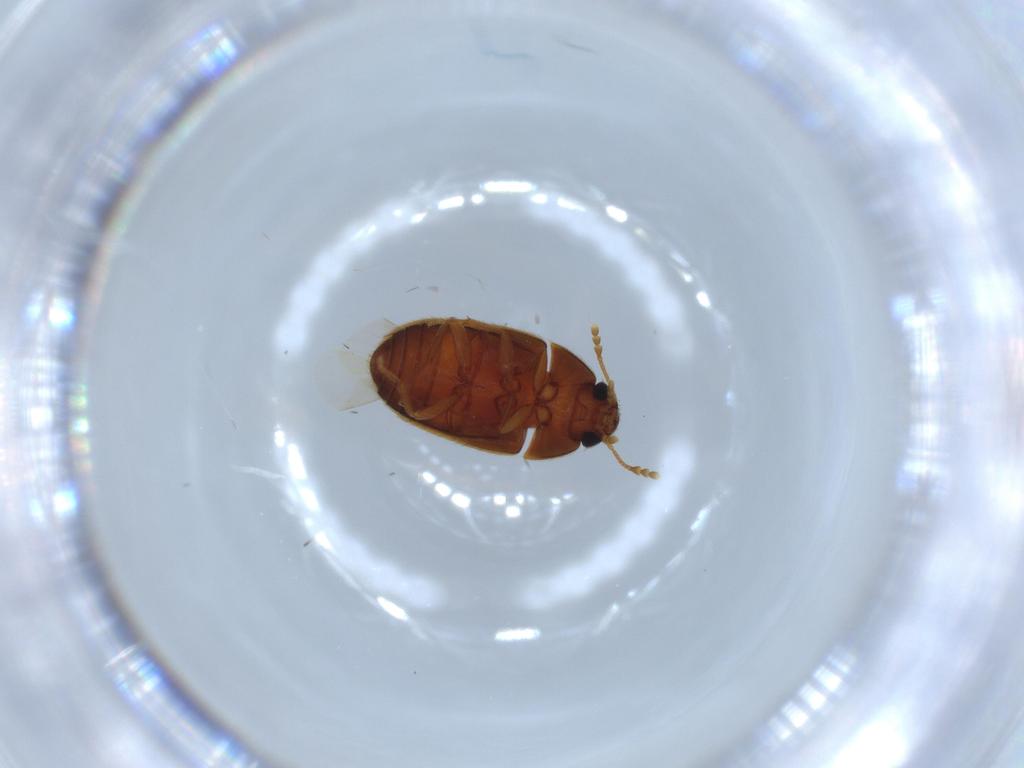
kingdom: Animalia
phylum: Arthropoda
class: Insecta
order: Coleoptera
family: Mycetophagidae
